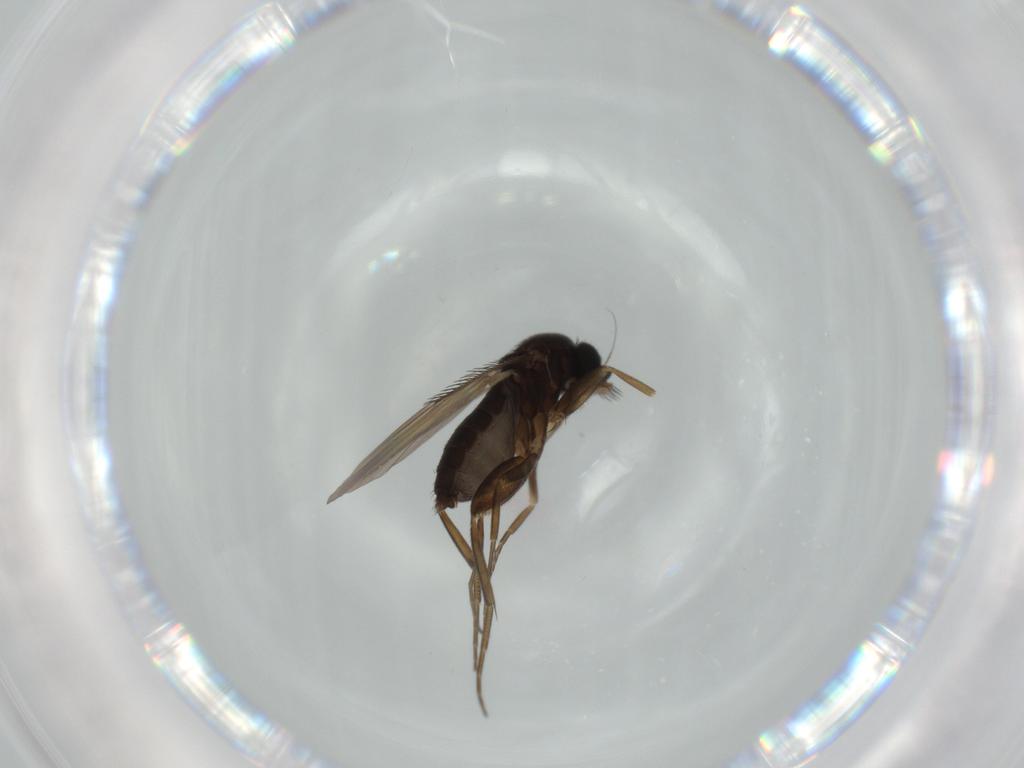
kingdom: Animalia
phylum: Arthropoda
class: Insecta
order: Diptera
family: Phoridae
